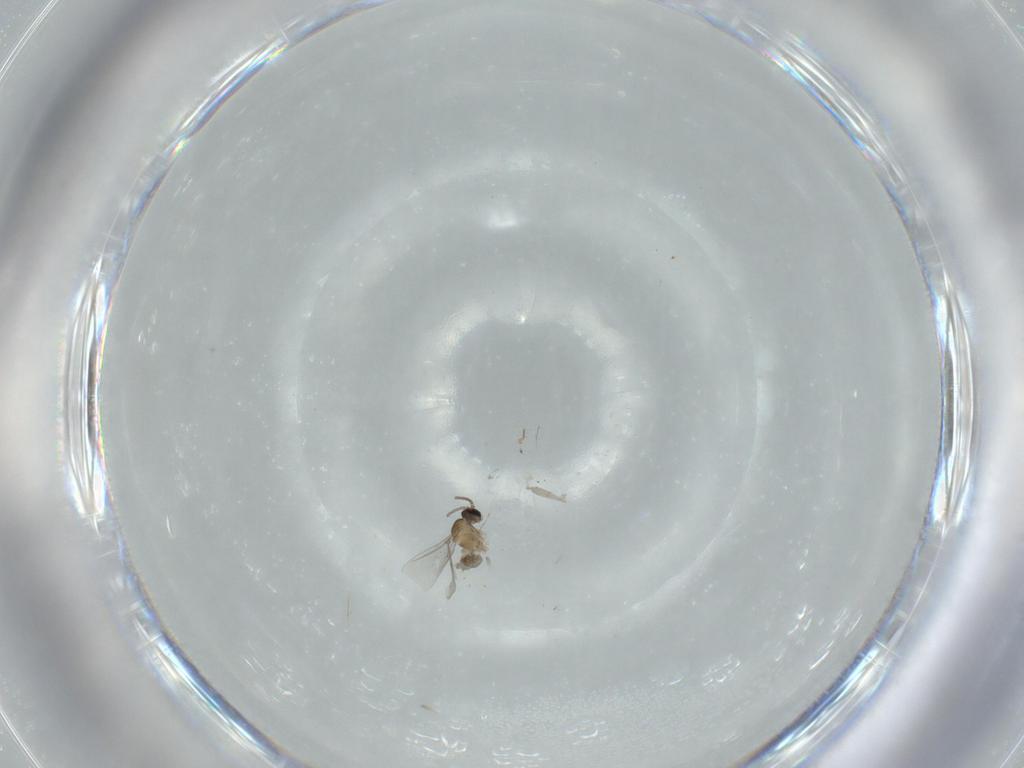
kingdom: Animalia
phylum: Arthropoda
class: Insecta
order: Diptera
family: Cecidomyiidae
